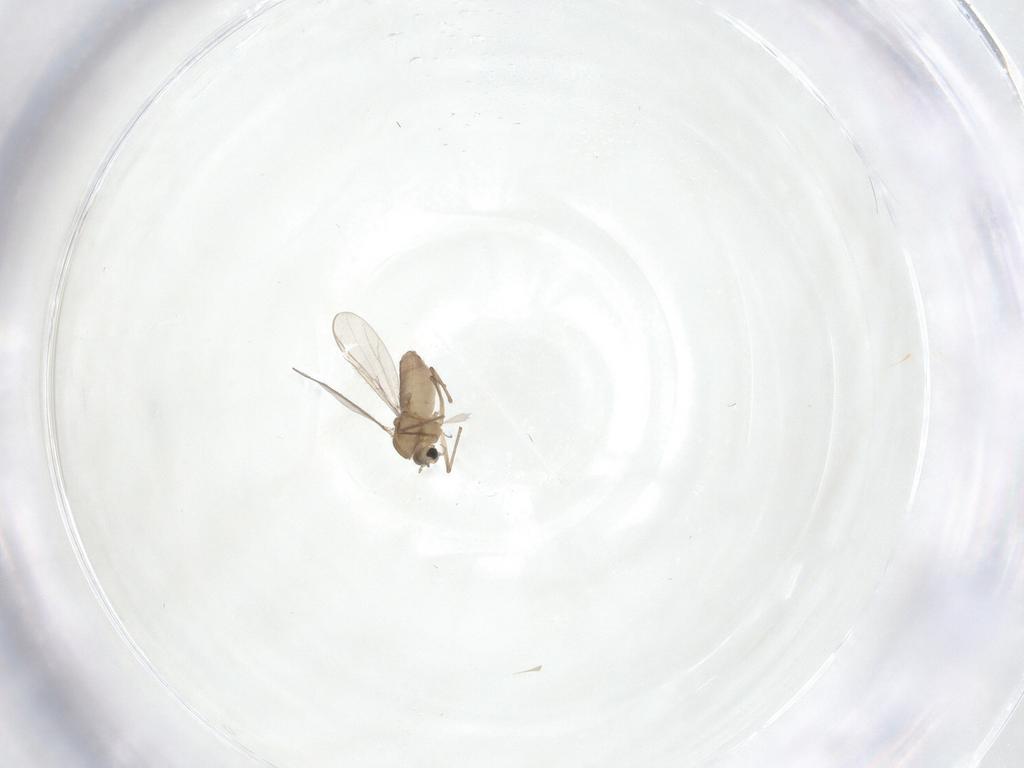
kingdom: Animalia
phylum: Arthropoda
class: Insecta
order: Diptera
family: Chironomidae
